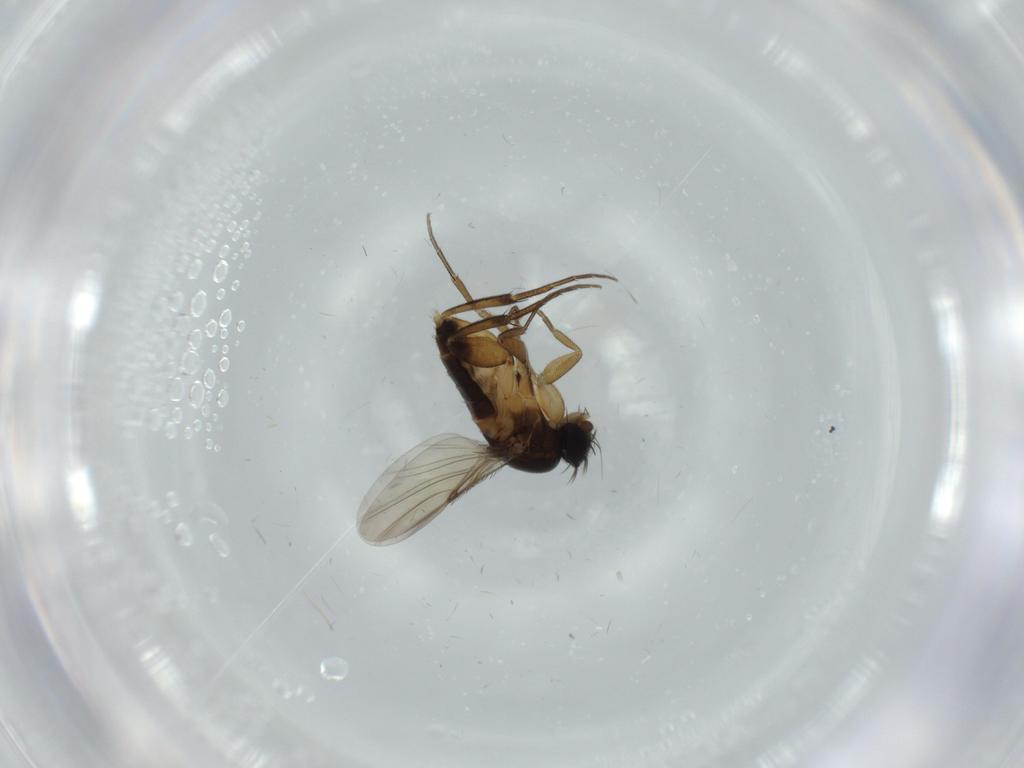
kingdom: Animalia
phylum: Arthropoda
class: Insecta
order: Diptera
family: Phoridae
